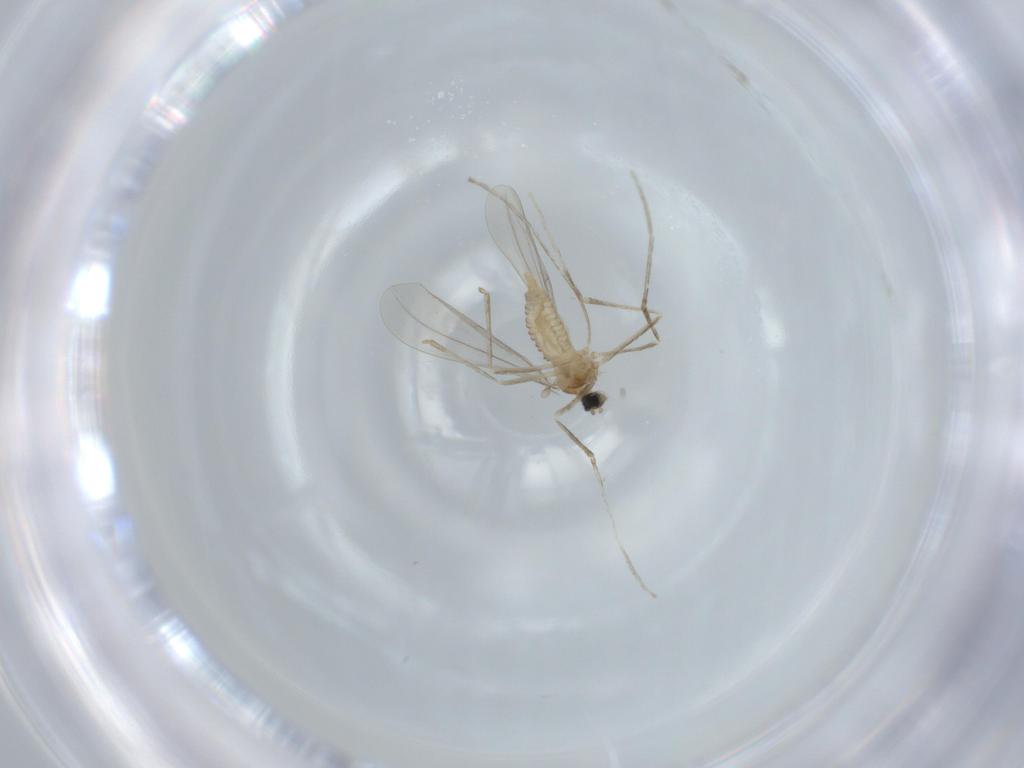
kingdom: Animalia
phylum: Arthropoda
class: Insecta
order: Diptera
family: Cecidomyiidae
